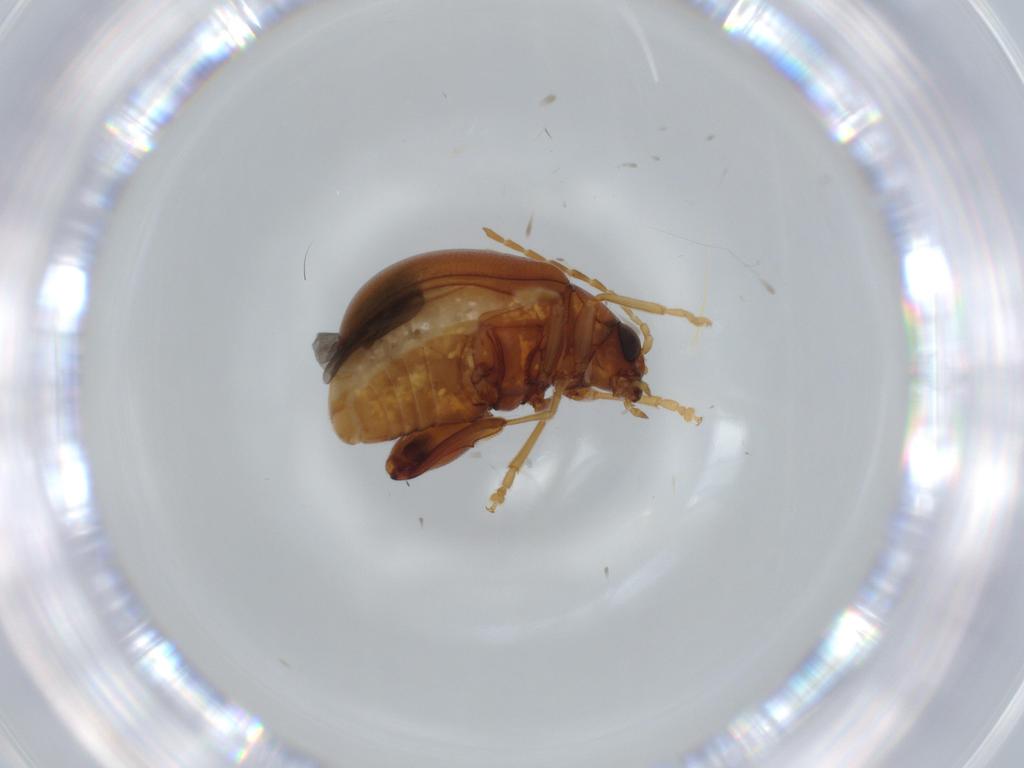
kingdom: Animalia
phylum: Arthropoda
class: Insecta
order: Coleoptera
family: Chrysomelidae
